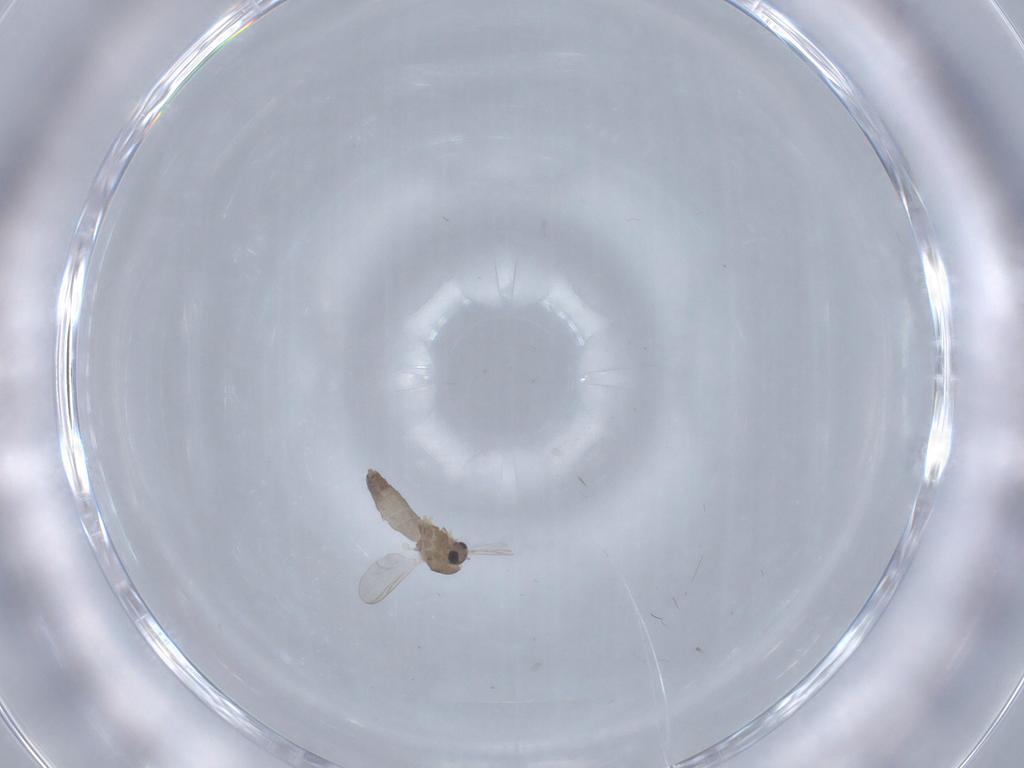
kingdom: Animalia
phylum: Arthropoda
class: Insecta
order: Diptera
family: Chironomidae
